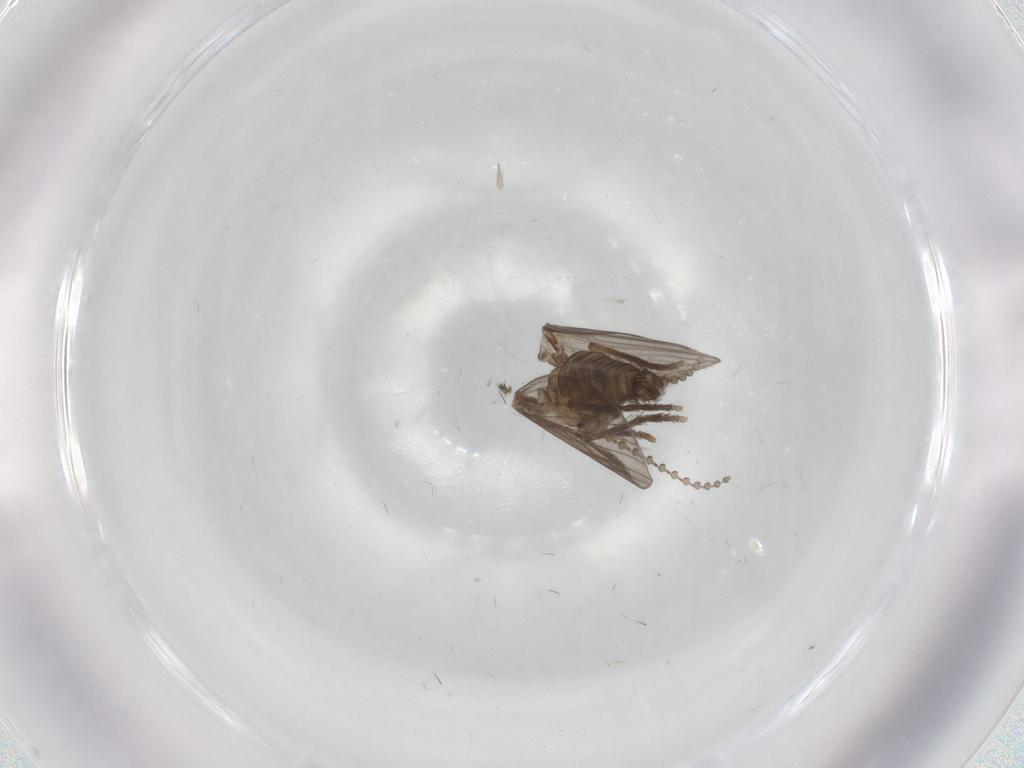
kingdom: Animalia
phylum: Arthropoda
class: Insecta
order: Diptera
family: Psychodidae
